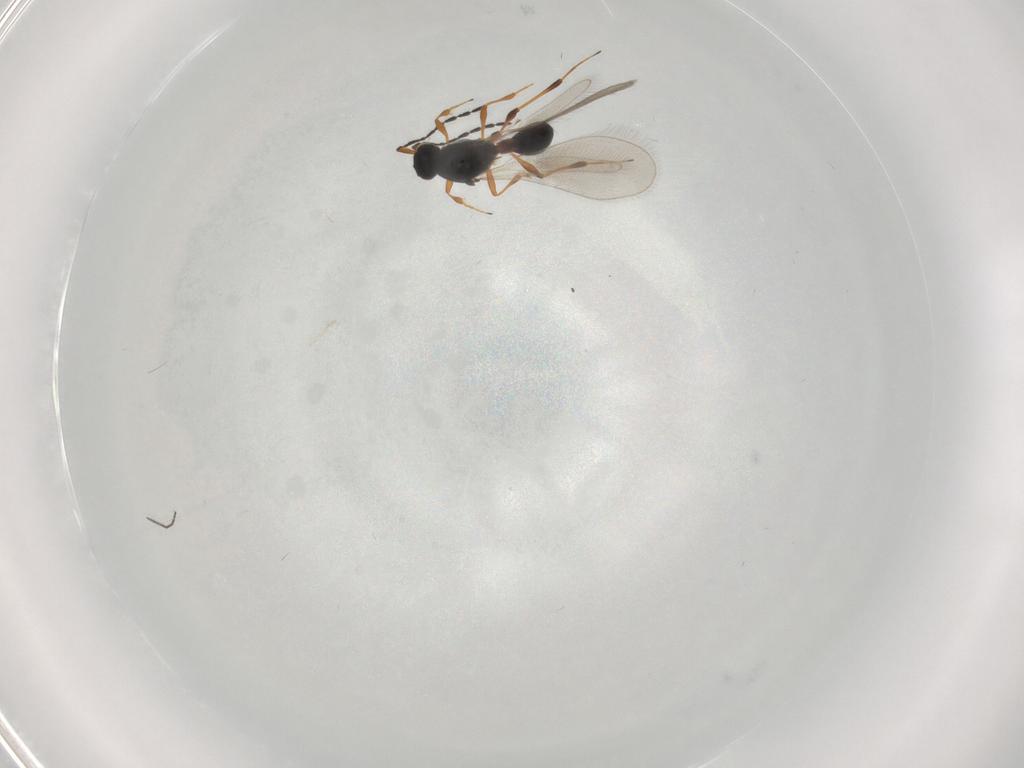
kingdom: Animalia
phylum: Arthropoda
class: Insecta
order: Hymenoptera
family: Platygastridae
